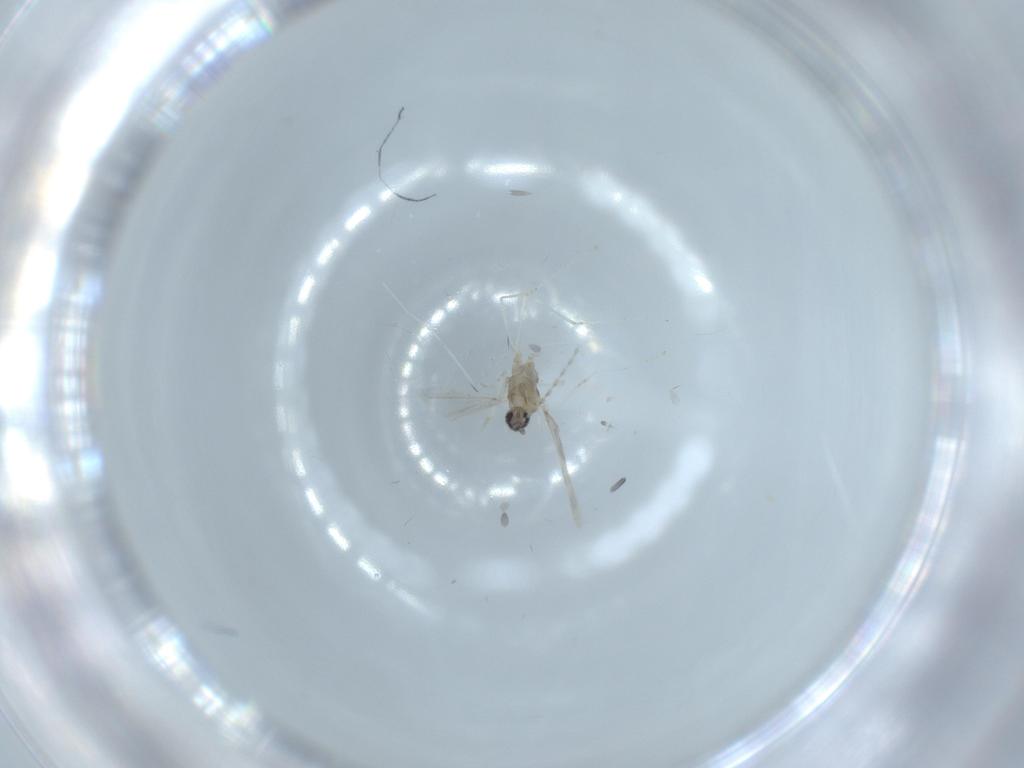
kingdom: Animalia
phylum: Arthropoda
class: Insecta
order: Diptera
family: Cecidomyiidae
